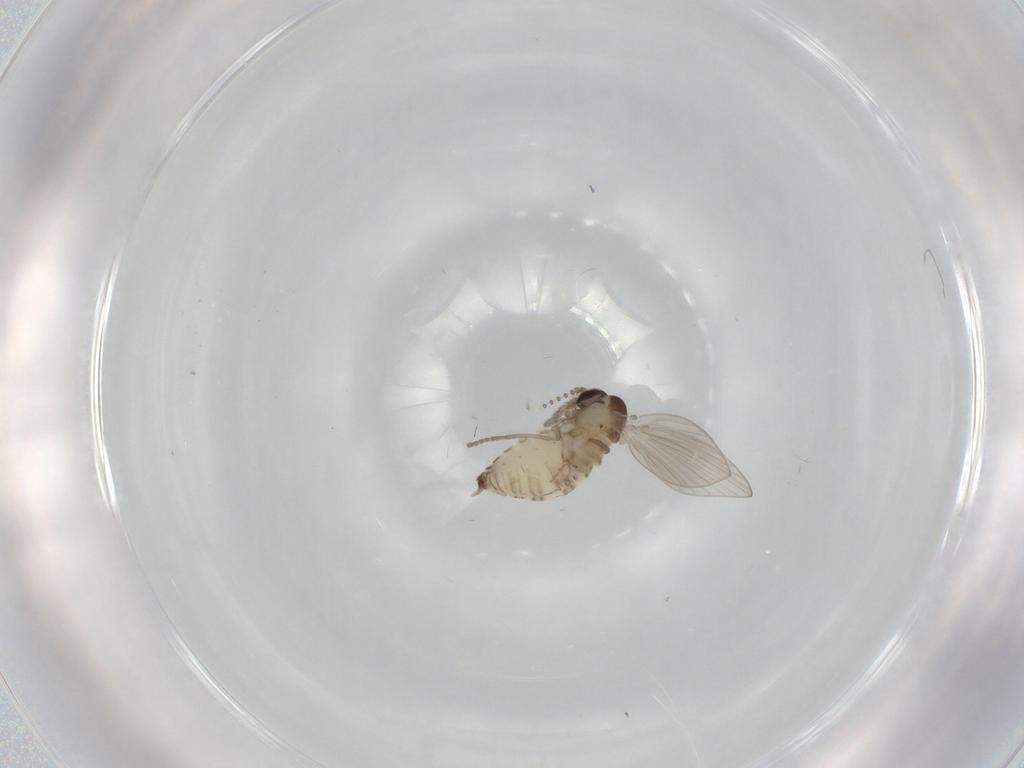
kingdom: Animalia
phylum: Arthropoda
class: Insecta
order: Diptera
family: Psychodidae
